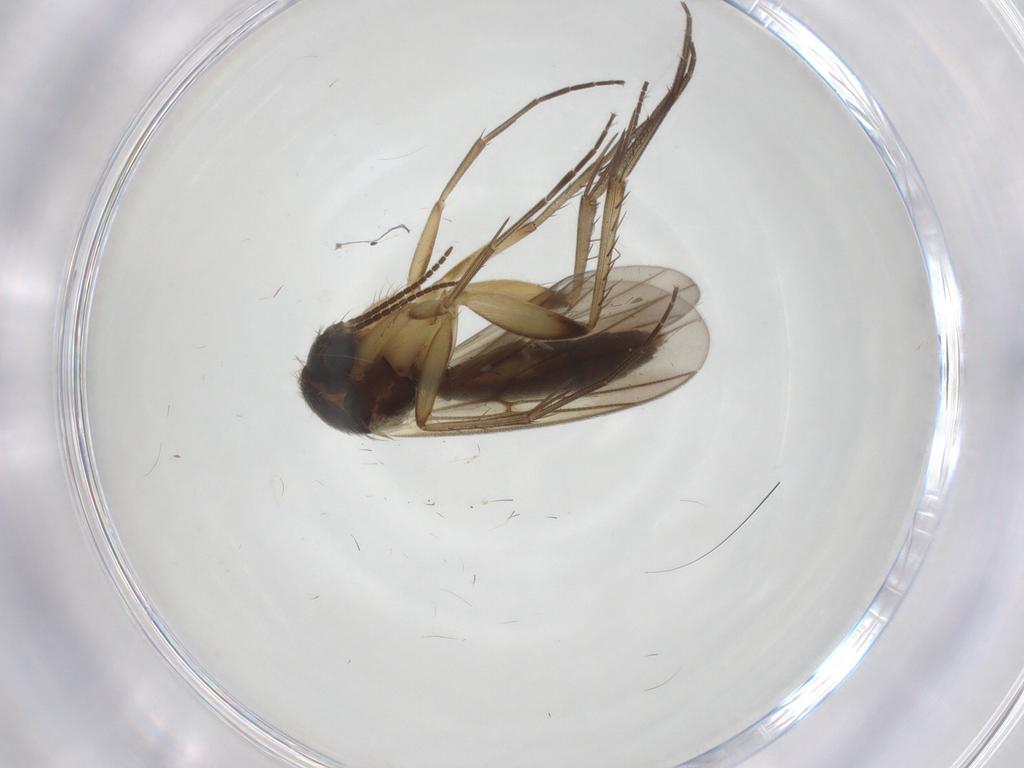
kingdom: Animalia
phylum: Arthropoda
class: Insecta
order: Diptera
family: Mycetophilidae
